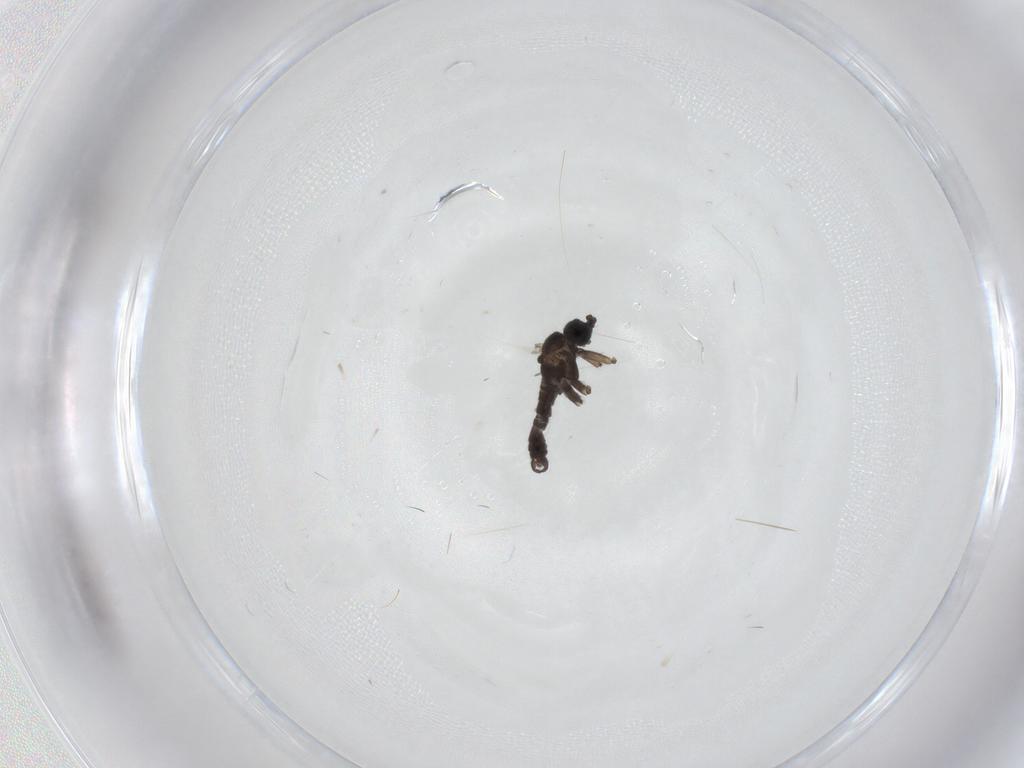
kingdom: Animalia
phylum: Arthropoda
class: Insecta
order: Diptera
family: Sciaridae
